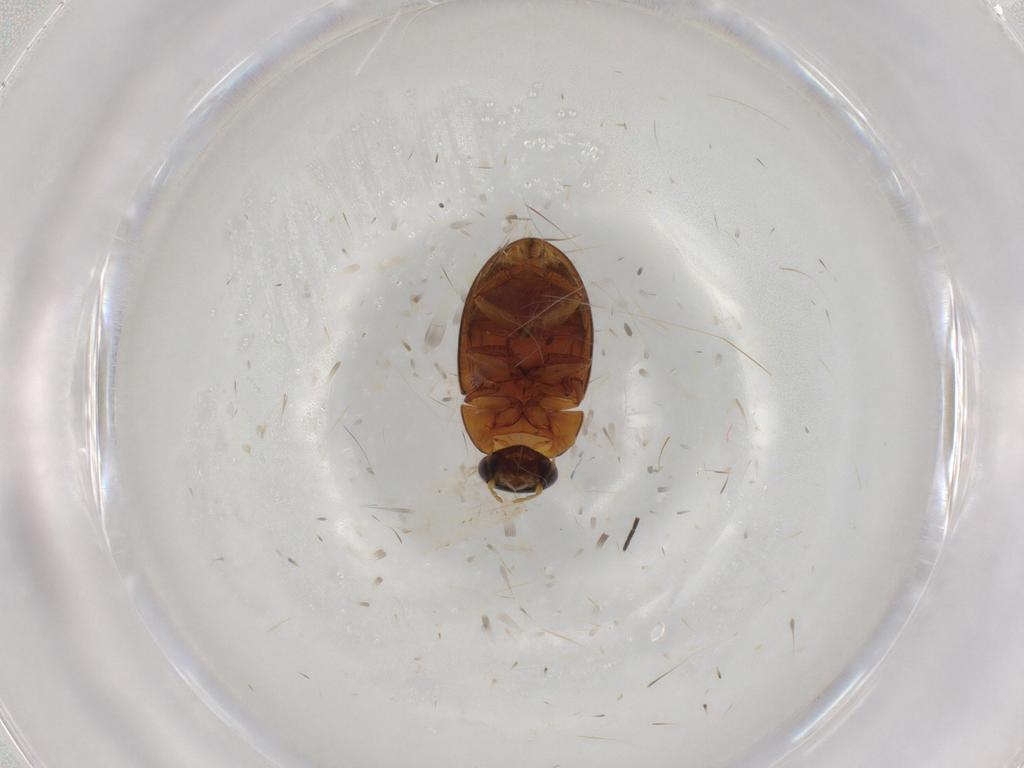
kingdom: Animalia
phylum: Arthropoda
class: Insecta
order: Coleoptera
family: Hydrophilidae
